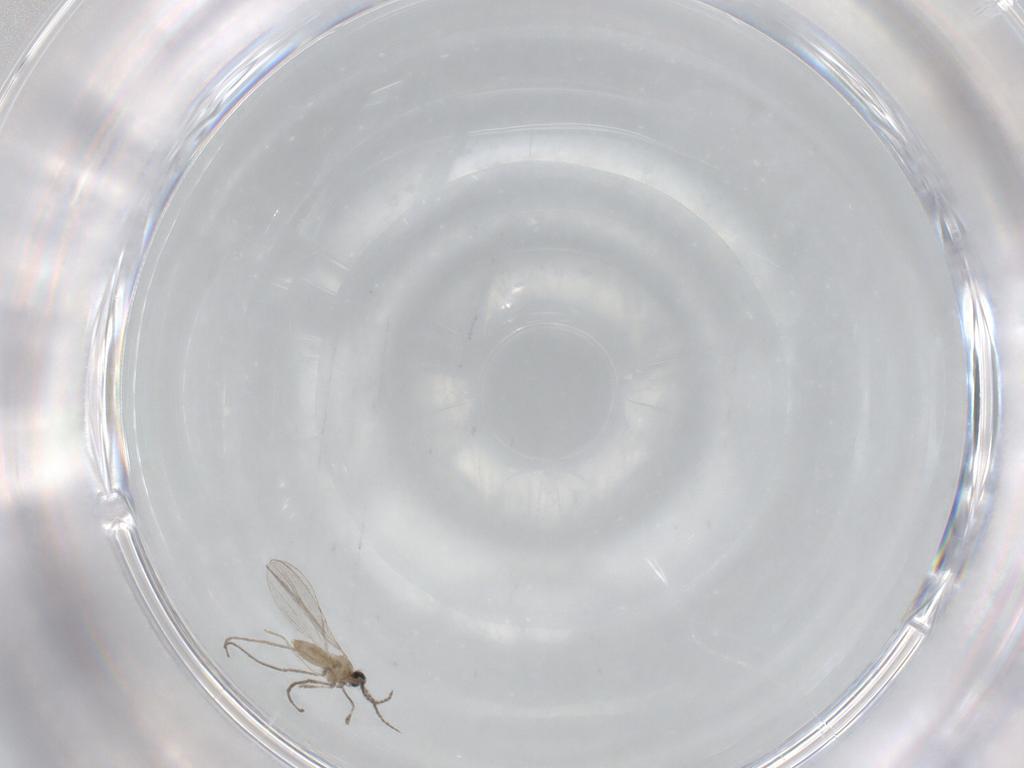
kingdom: Animalia
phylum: Arthropoda
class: Insecta
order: Diptera
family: Cecidomyiidae
